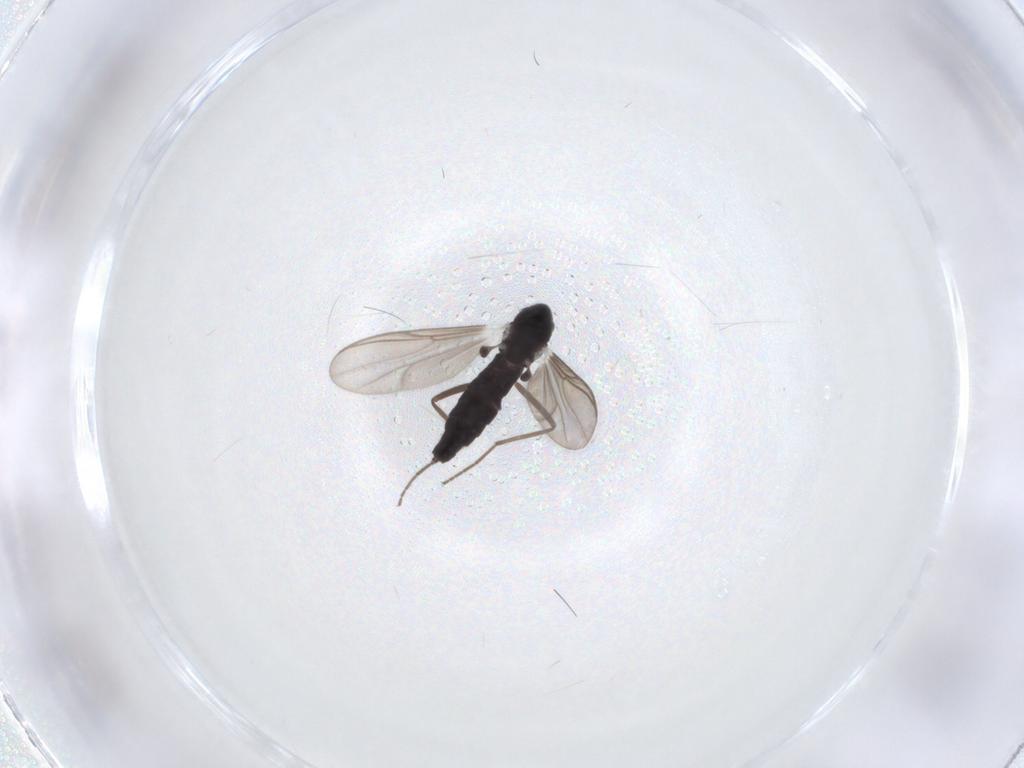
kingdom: Animalia
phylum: Arthropoda
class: Insecta
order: Diptera
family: Chironomidae
